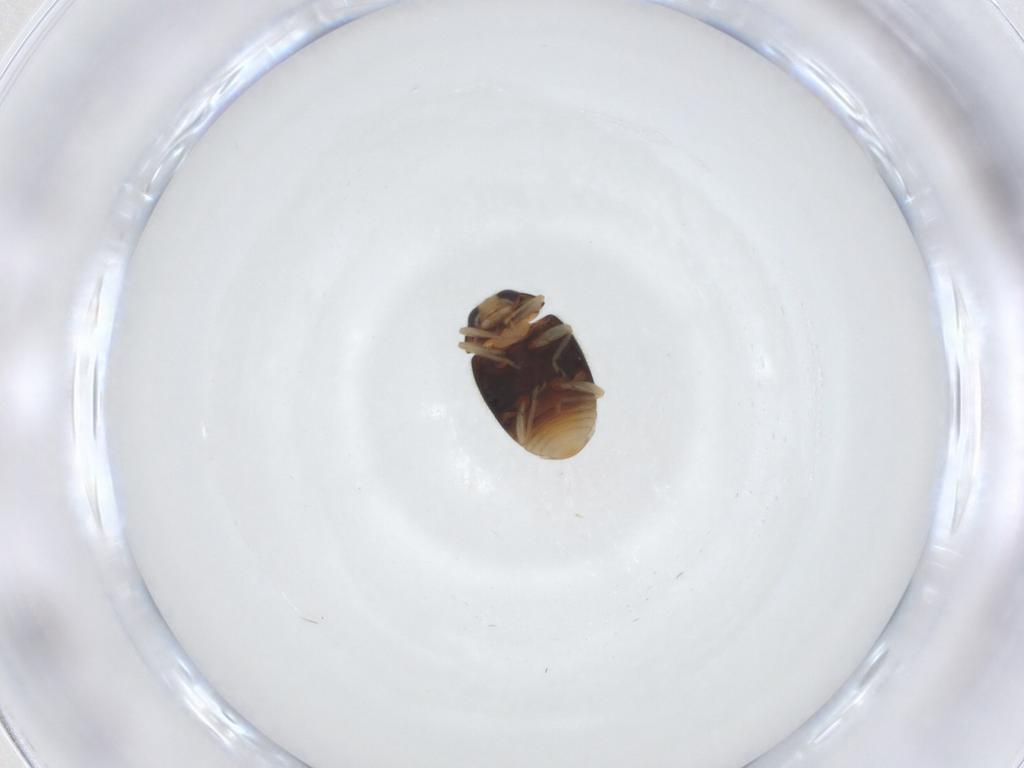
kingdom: Animalia
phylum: Arthropoda
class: Insecta
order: Coleoptera
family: Coccinellidae
